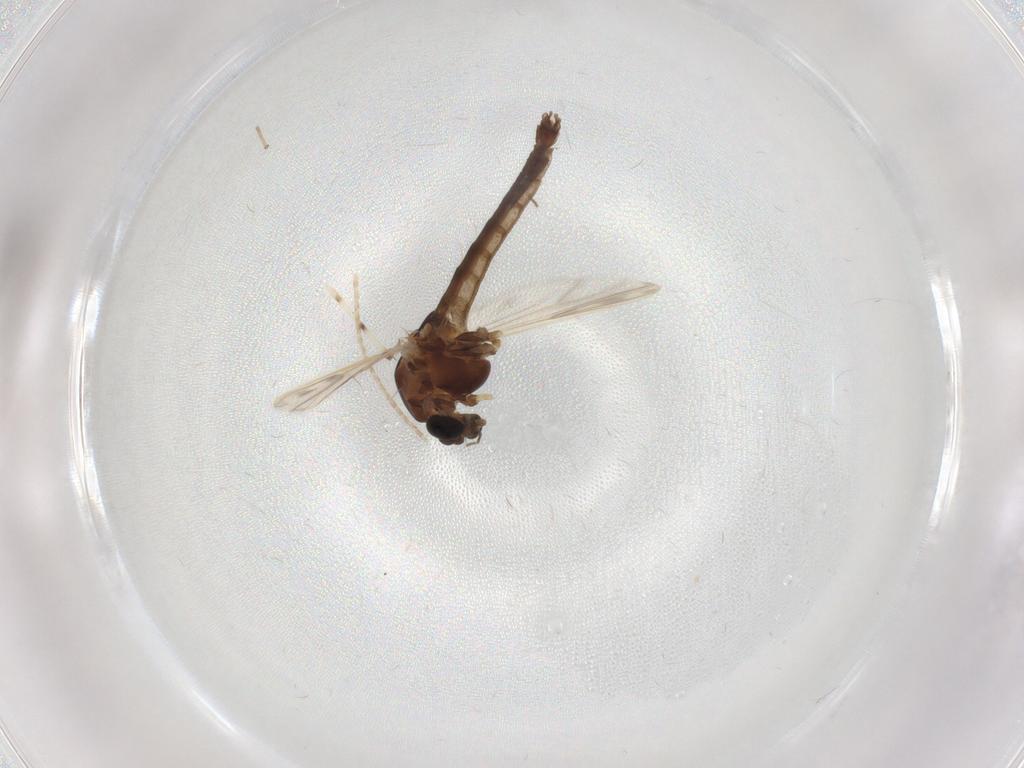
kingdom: Animalia
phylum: Arthropoda
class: Insecta
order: Diptera
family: Chironomidae
